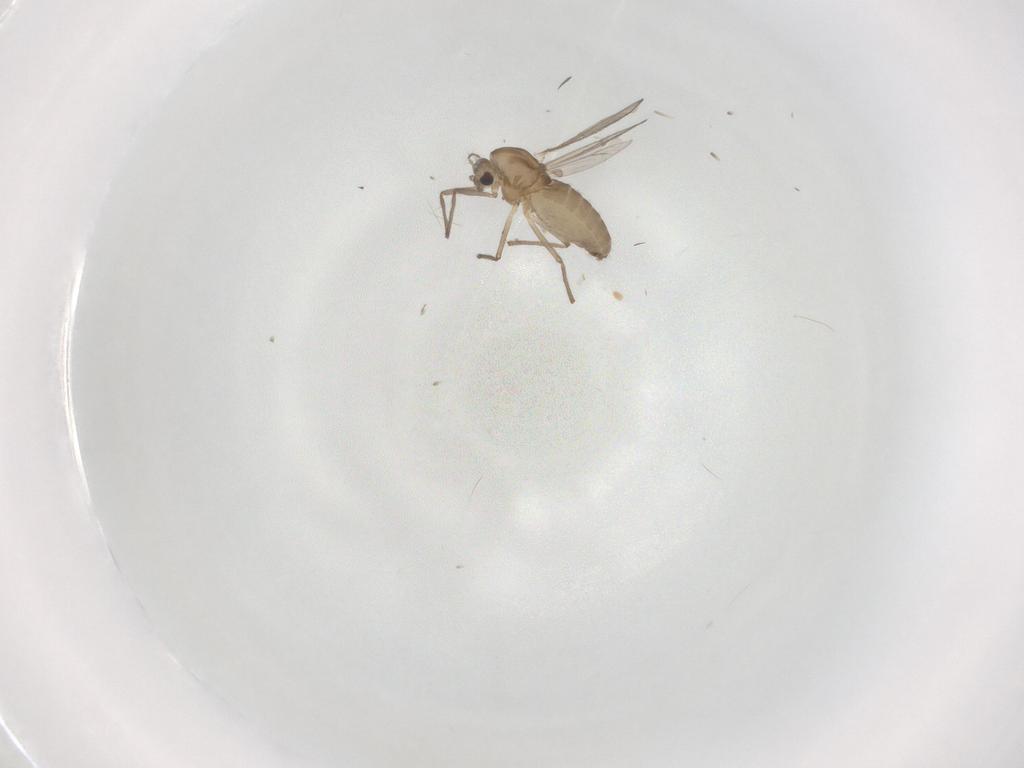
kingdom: Animalia
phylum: Arthropoda
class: Insecta
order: Diptera
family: Chironomidae
